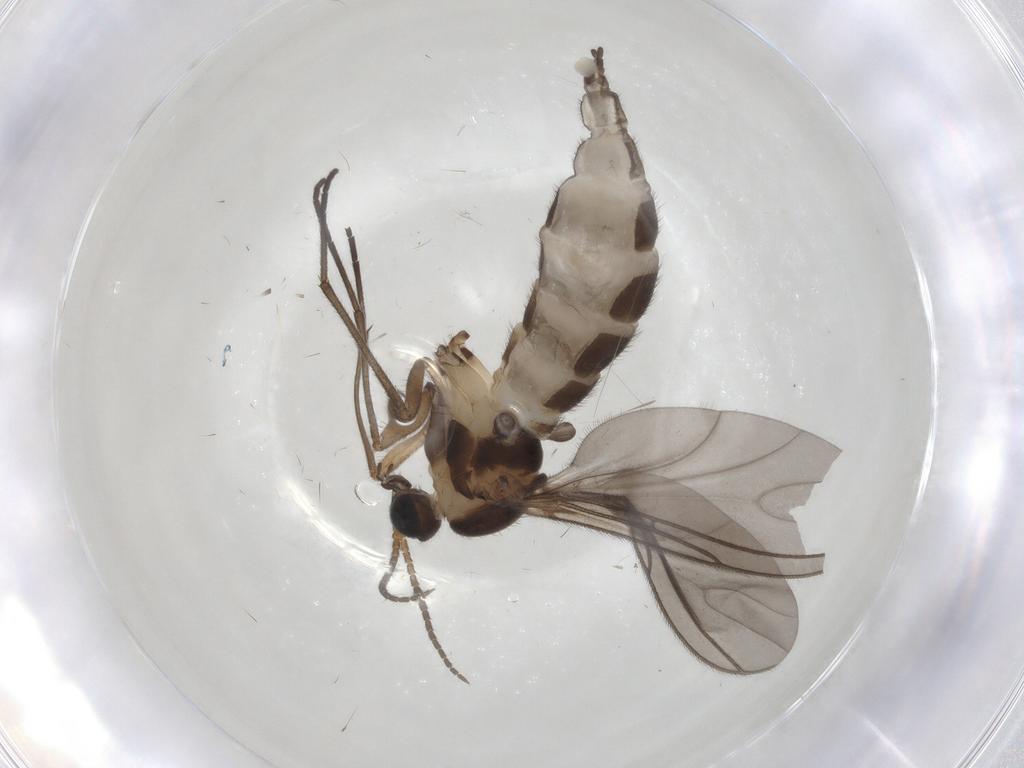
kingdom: Animalia
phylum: Arthropoda
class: Insecta
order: Diptera
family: Sciaridae
